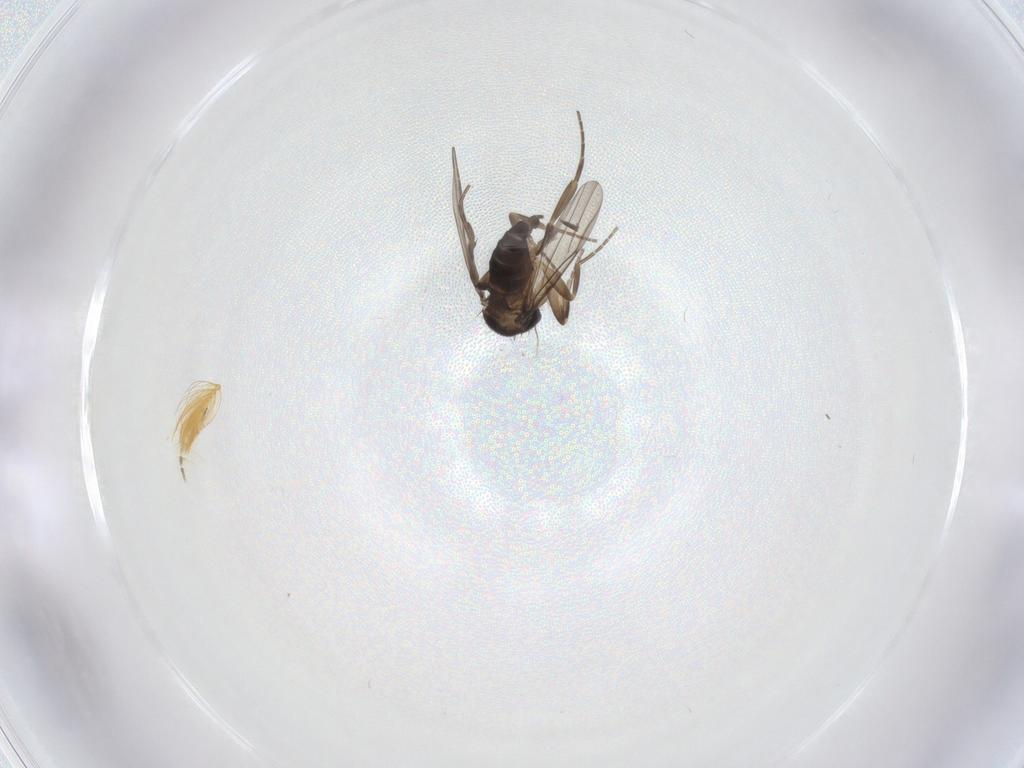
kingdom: Animalia
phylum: Arthropoda
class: Insecta
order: Diptera
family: Phoridae
